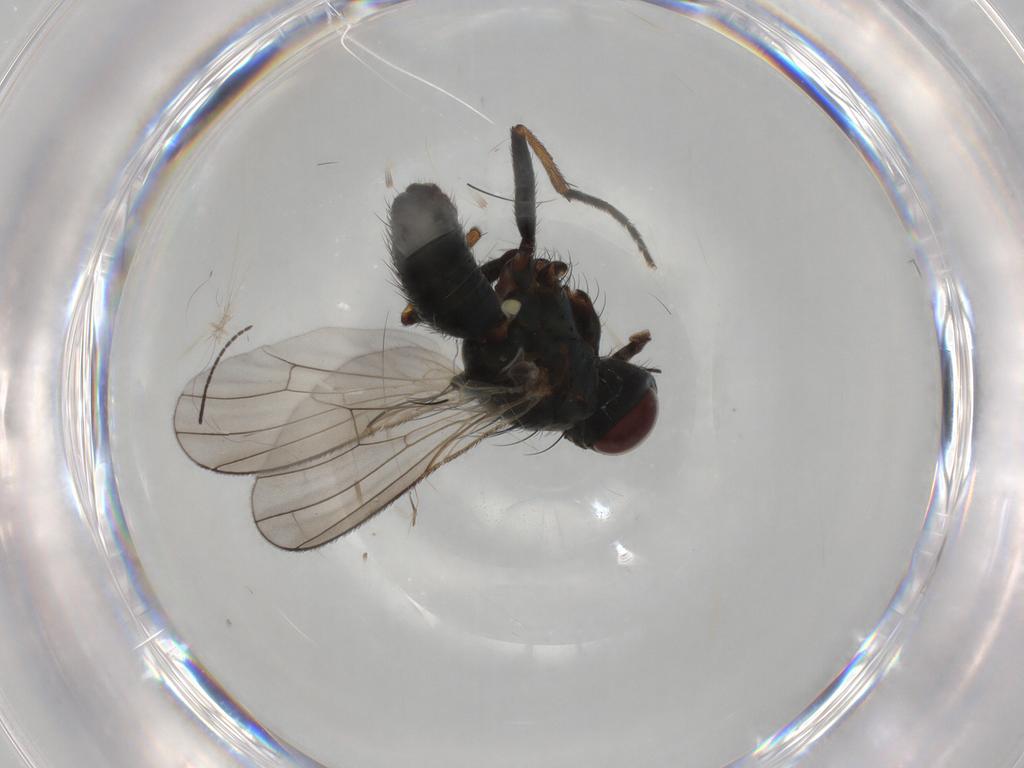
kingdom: Animalia
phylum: Arthropoda
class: Insecta
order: Diptera
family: Muscidae
